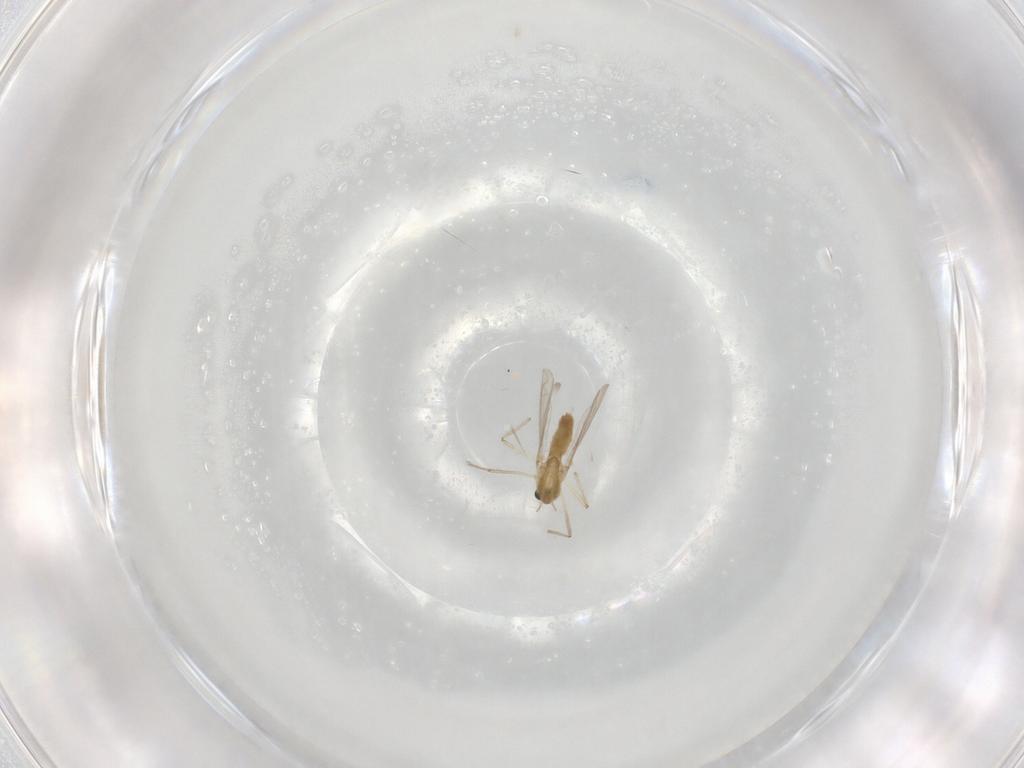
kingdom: Animalia
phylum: Arthropoda
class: Insecta
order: Diptera
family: Chironomidae
